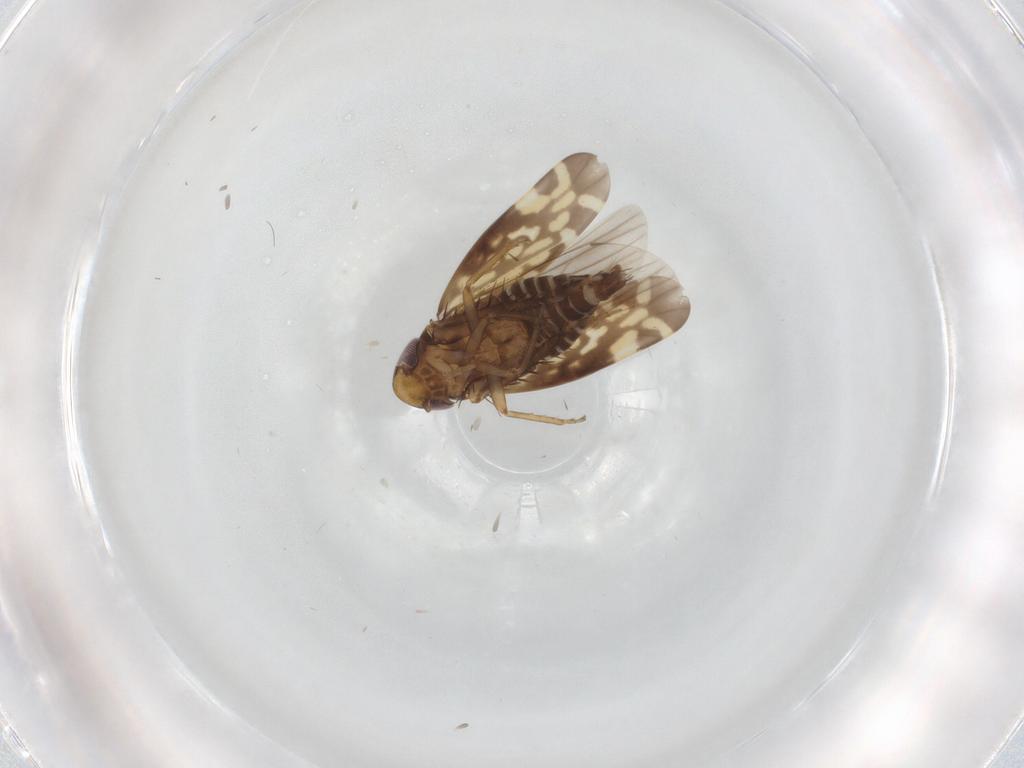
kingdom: Animalia
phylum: Arthropoda
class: Insecta
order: Hemiptera
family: Cicadellidae
